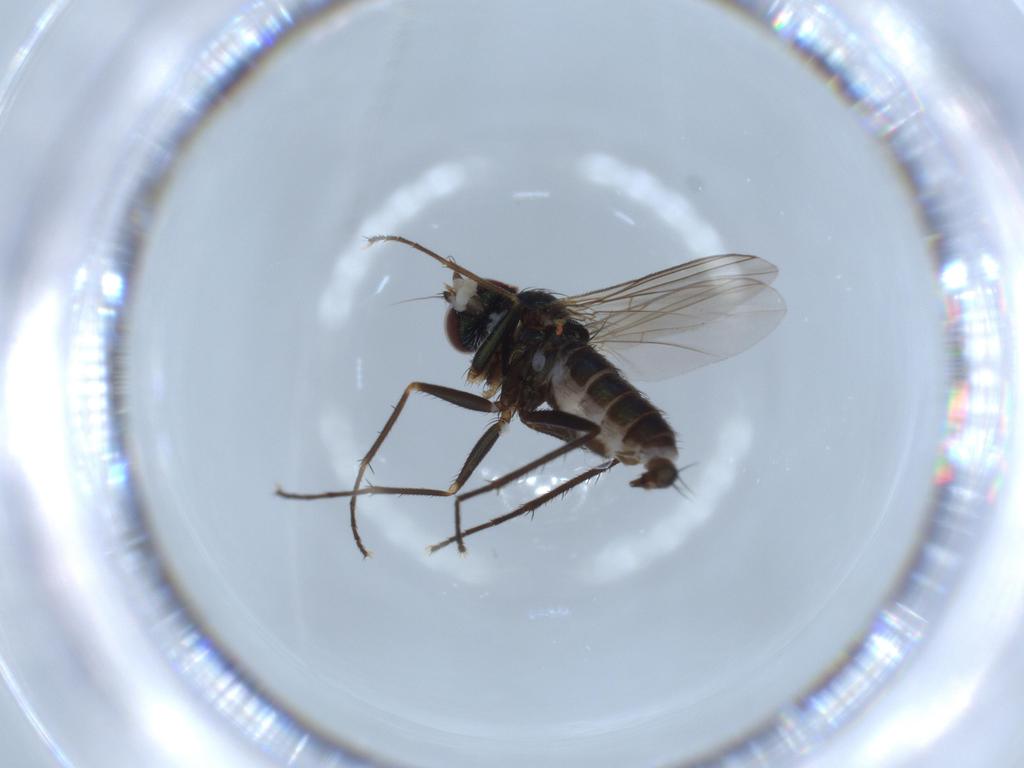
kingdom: Animalia
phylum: Arthropoda
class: Insecta
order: Diptera
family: Dolichopodidae
